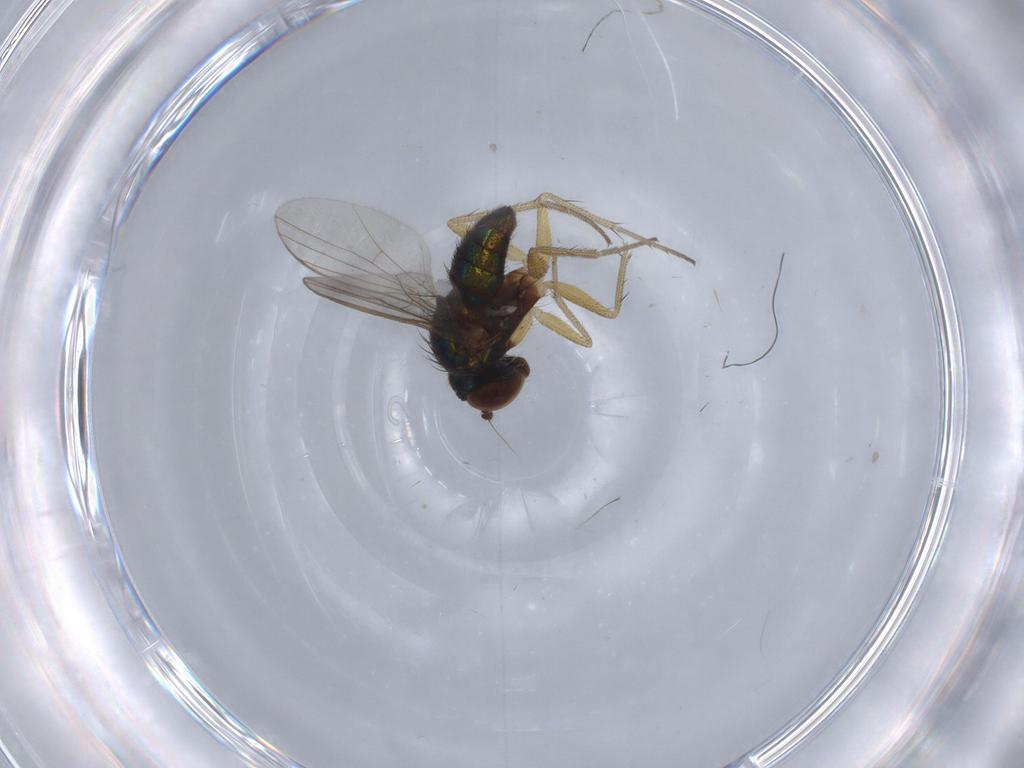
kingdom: Animalia
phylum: Arthropoda
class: Insecta
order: Diptera
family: Dolichopodidae
